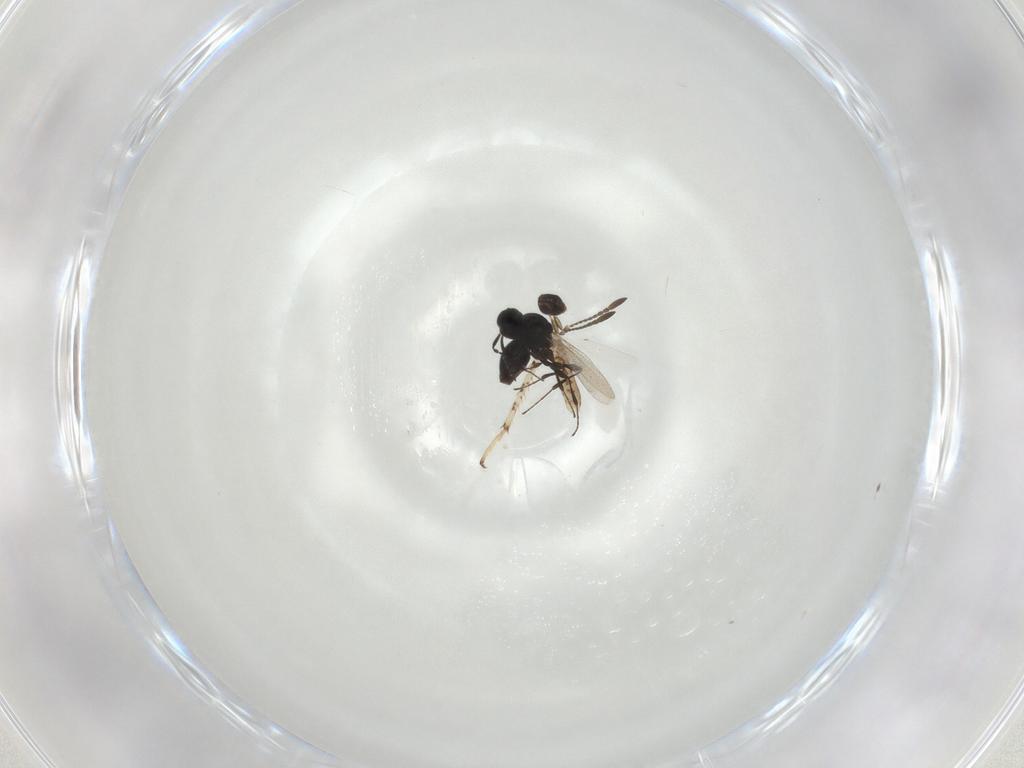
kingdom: Animalia
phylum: Arthropoda
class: Insecta
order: Hymenoptera
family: Platygastridae
